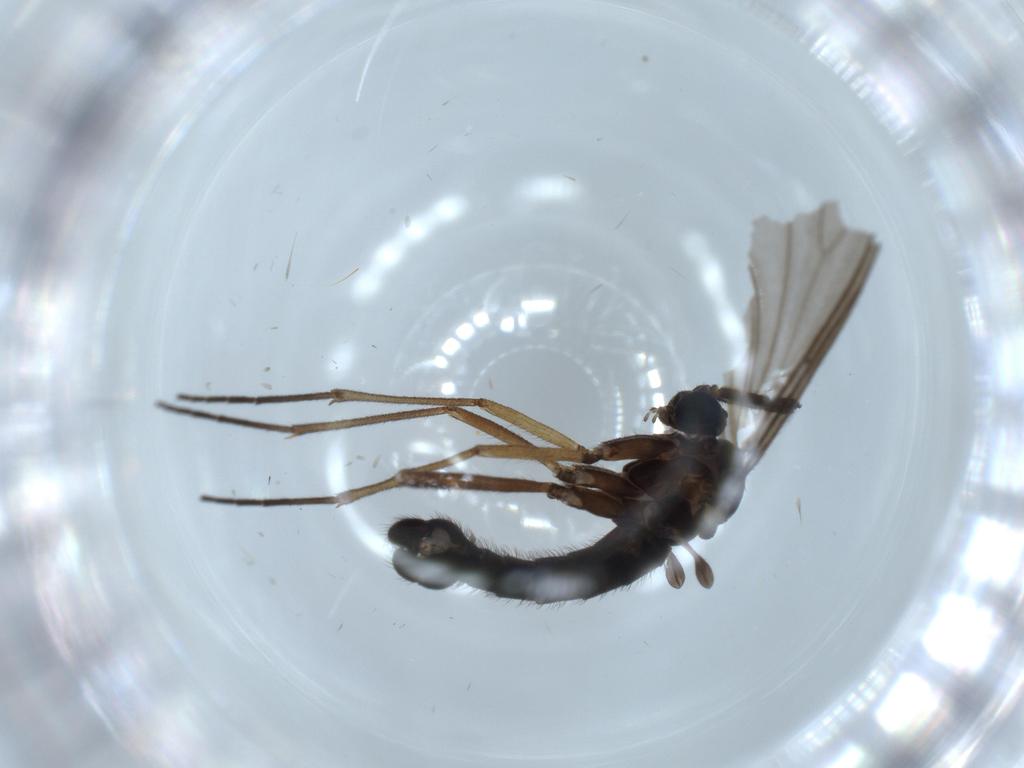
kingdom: Animalia
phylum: Arthropoda
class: Insecta
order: Diptera
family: Sciaridae
